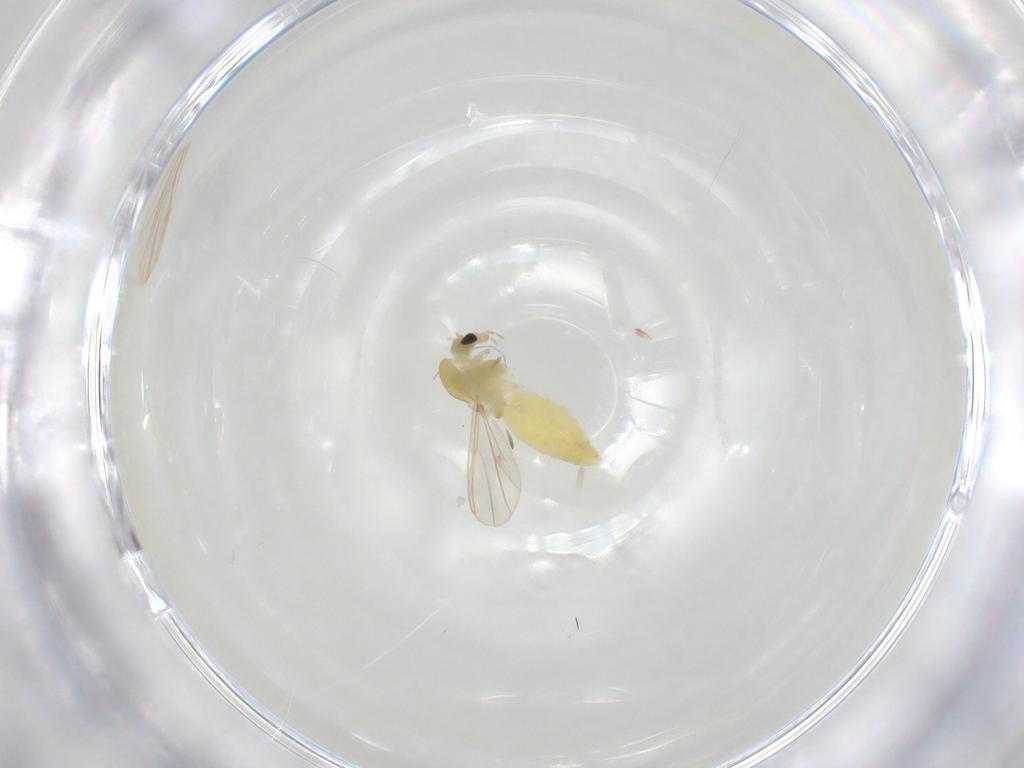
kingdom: Animalia
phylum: Arthropoda
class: Insecta
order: Diptera
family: Chironomidae
